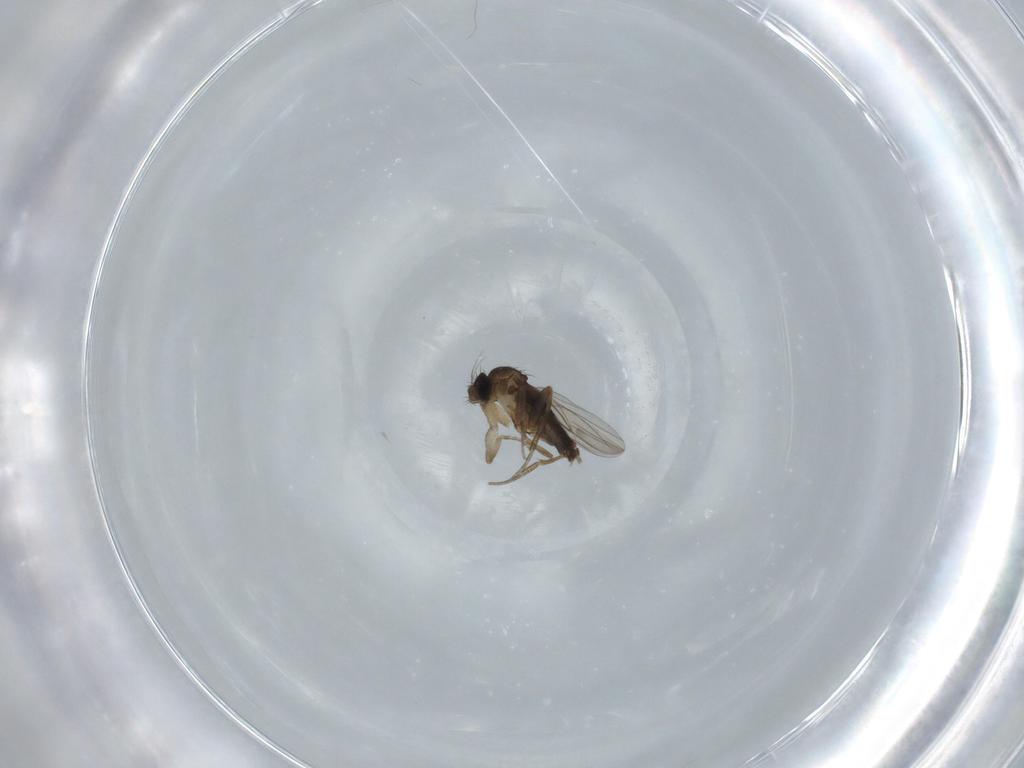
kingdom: Animalia
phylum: Arthropoda
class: Insecta
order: Diptera
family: Phoridae
